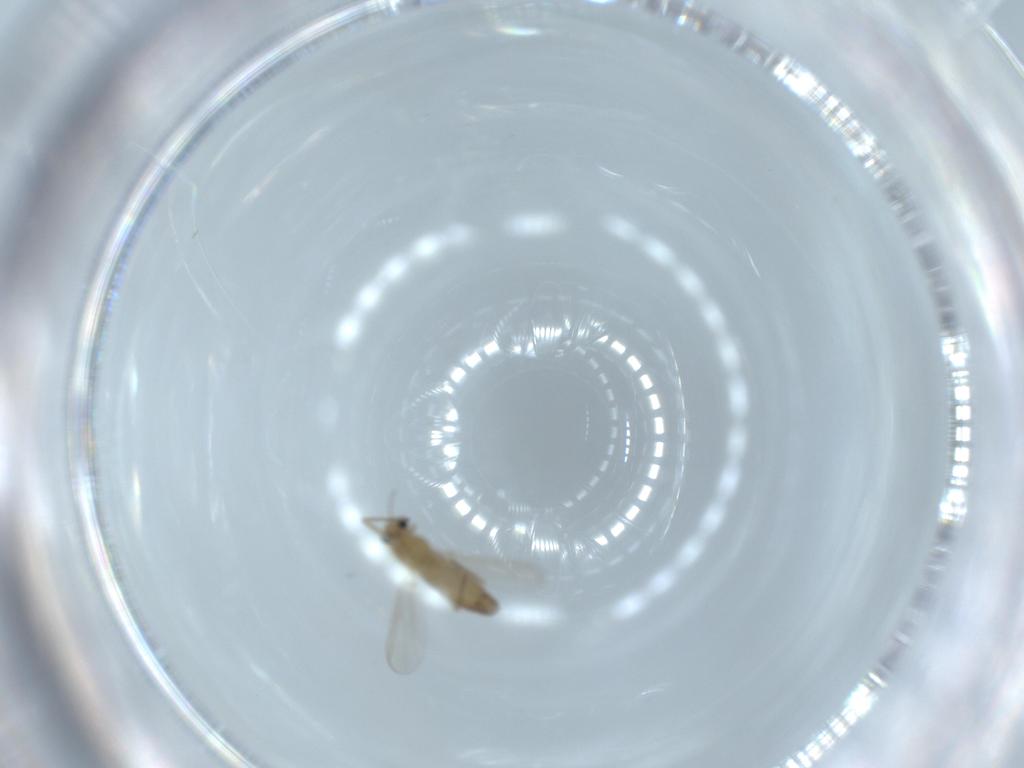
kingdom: Animalia
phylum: Arthropoda
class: Insecta
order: Diptera
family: Chironomidae
